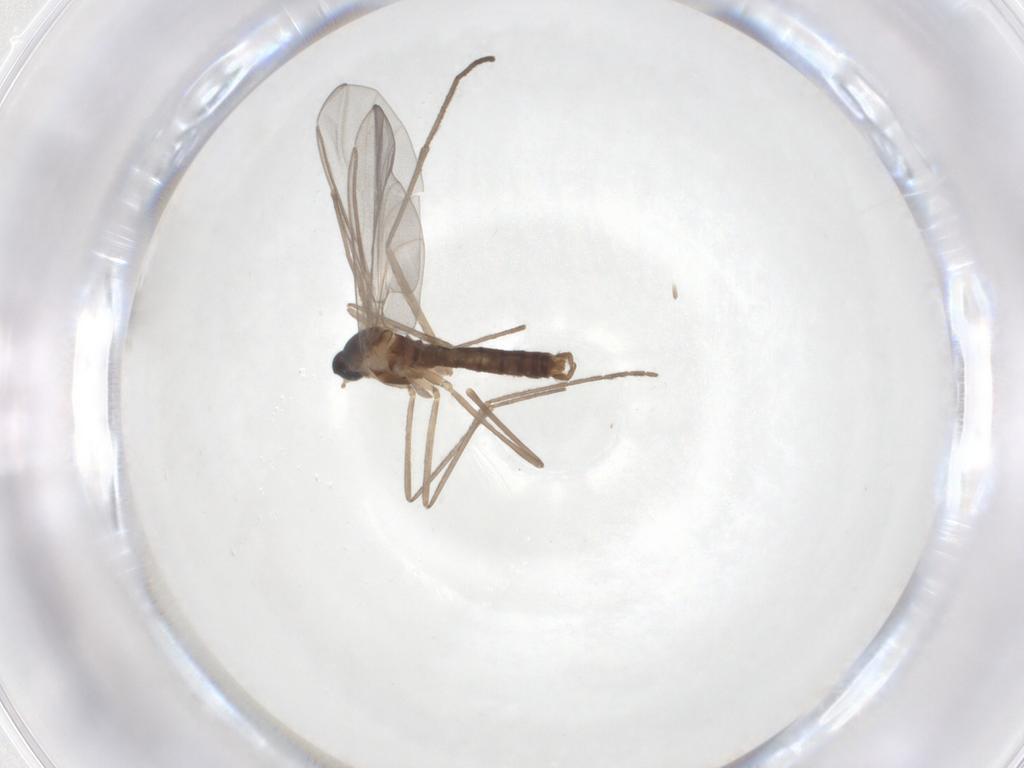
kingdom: Animalia
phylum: Arthropoda
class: Insecta
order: Diptera
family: Cecidomyiidae
